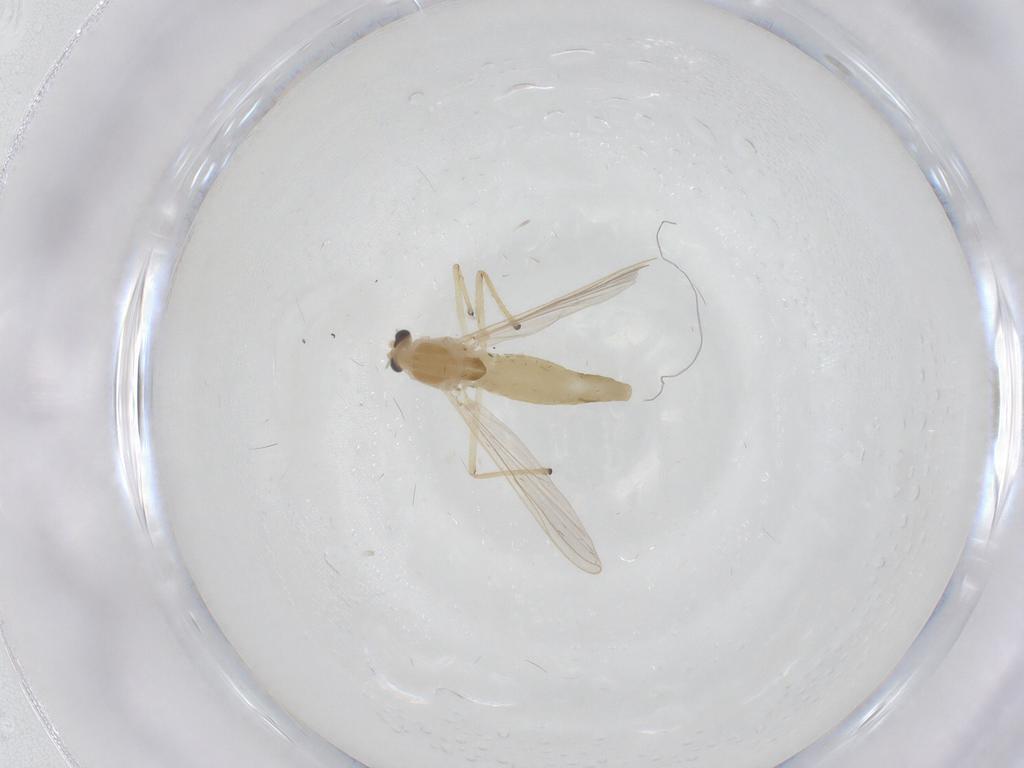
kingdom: Animalia
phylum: Arthropoda
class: Insecta
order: Diptera
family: Chironomidae
